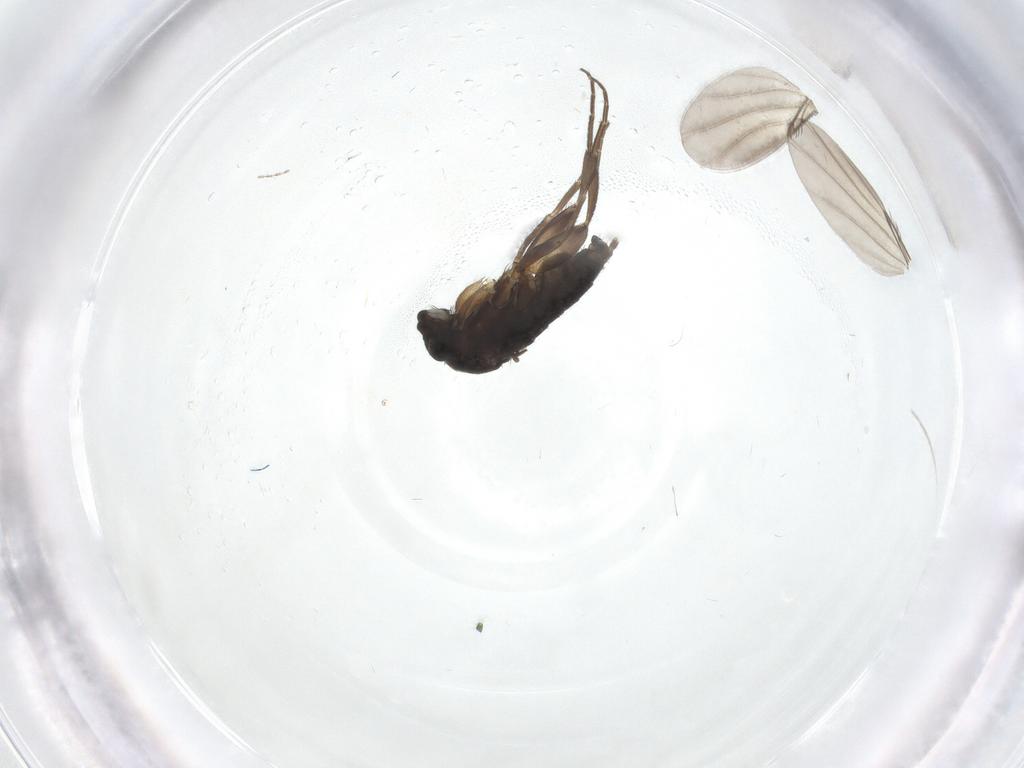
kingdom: Animalia
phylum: Arthropoda
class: Insecta
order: Diptera
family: Phoridae
